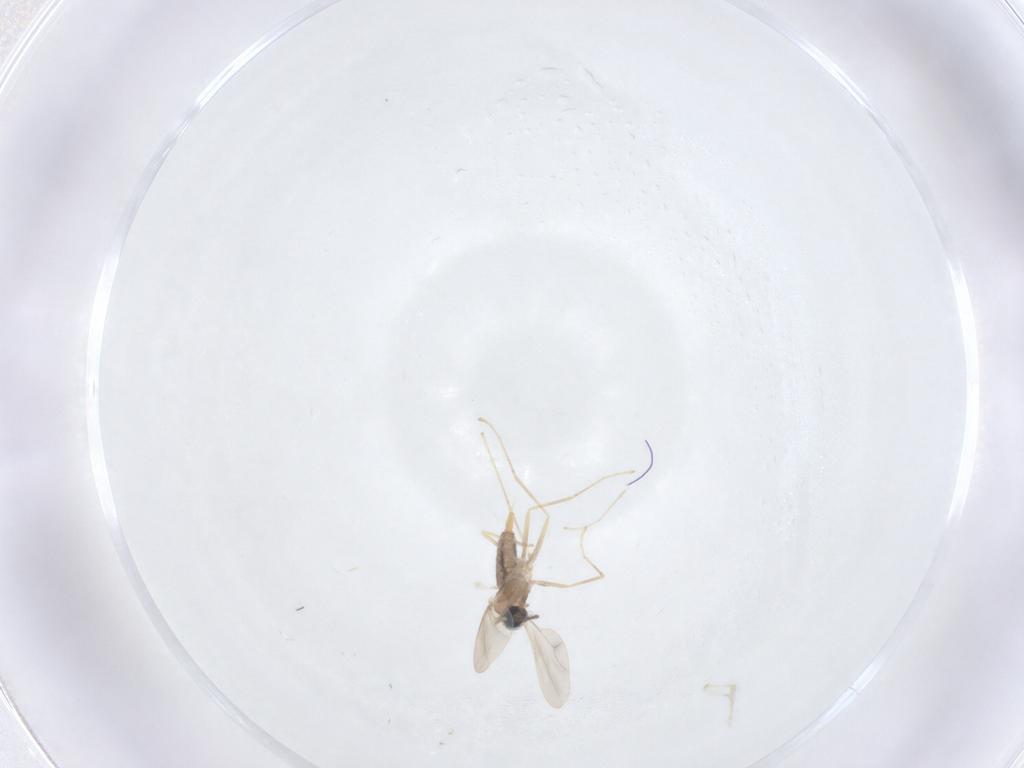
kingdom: Animalia
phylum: Arthropoda
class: Insecta
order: Diptera
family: Cecidomyiidae
